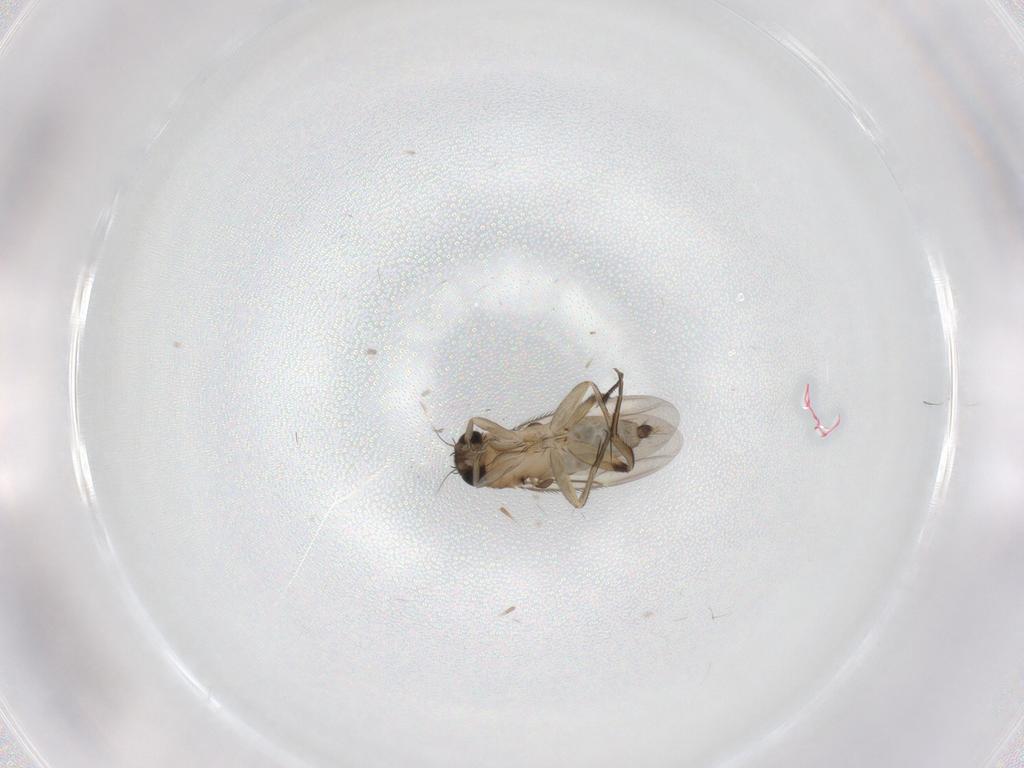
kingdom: Animalia
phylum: Arthropoda
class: Insecta
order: Diptera
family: Phoridae
